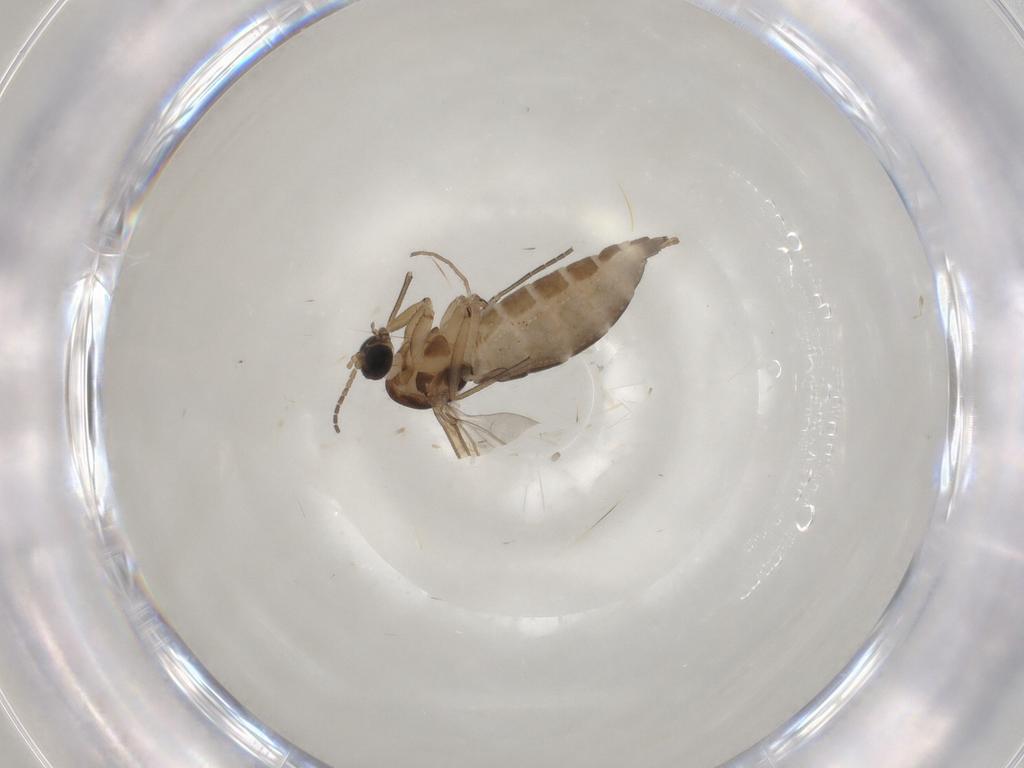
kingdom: Animalia
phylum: Arthropoda
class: Insecta
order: Diptera
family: Sciaridae
